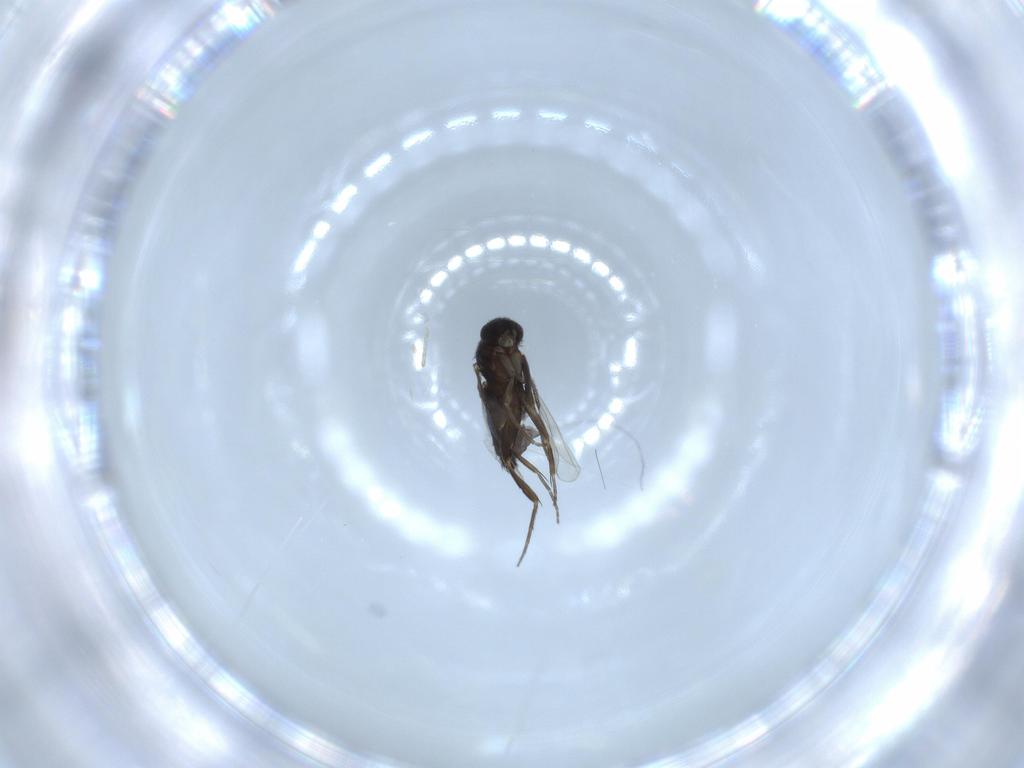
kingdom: Animalia
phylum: Arthropoda
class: Insecta
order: Diptera
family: Phoridae
